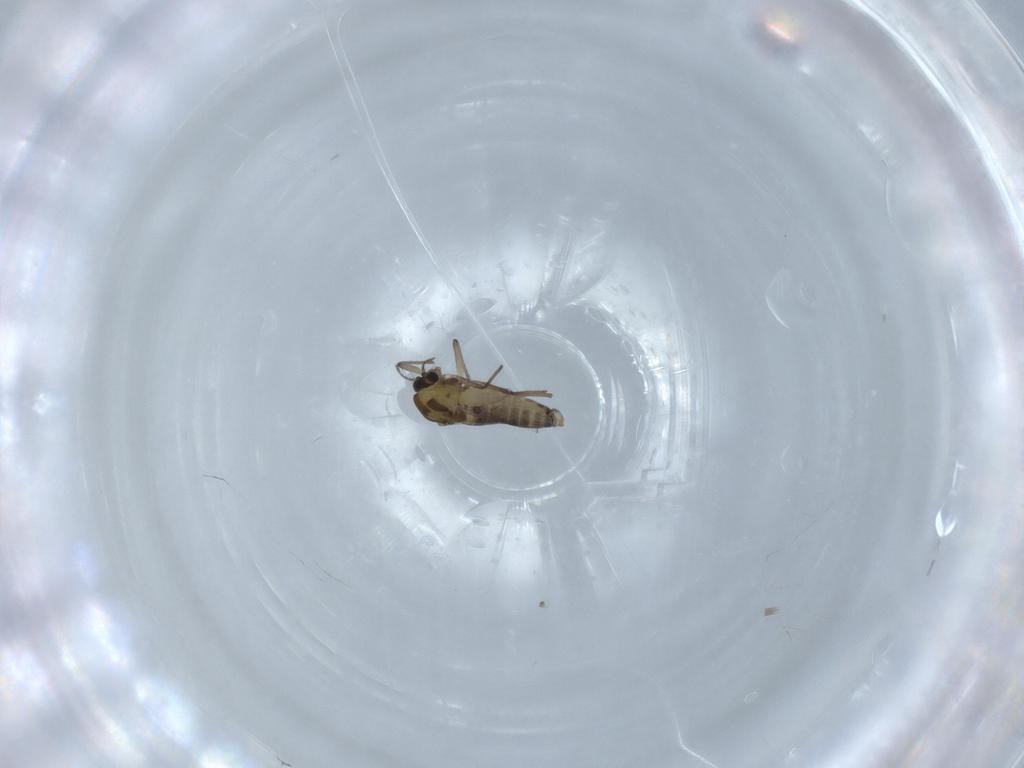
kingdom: Animalia
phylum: Arthropoda
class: Insecta
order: Diptera
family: Chironomidae
